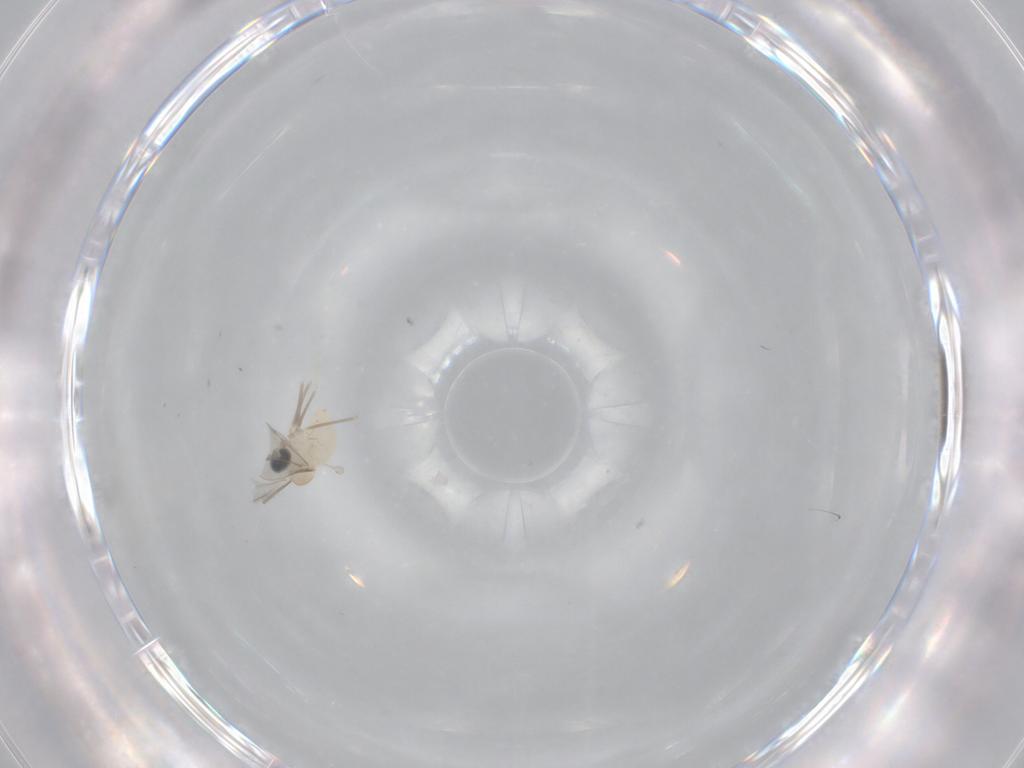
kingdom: Animalia
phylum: Arthropoda
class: Insecta
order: Diptera
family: Cecidomyiidae
